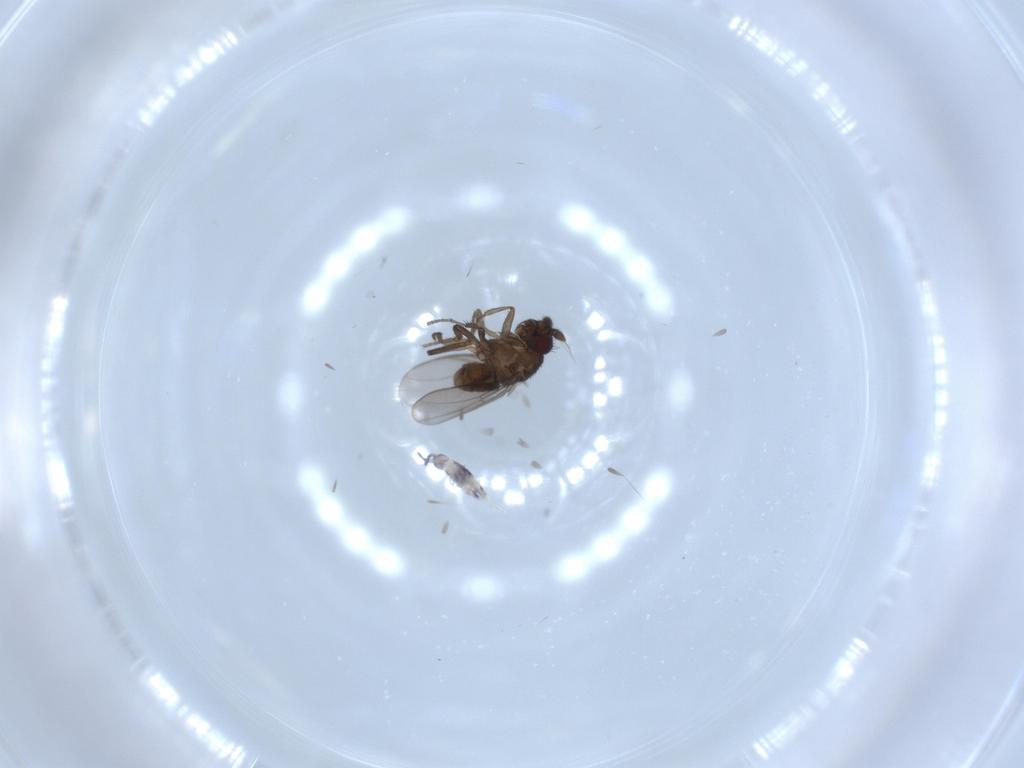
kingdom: Animalia
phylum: Arthropoda
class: Insecta
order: Diptera
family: Sphaeroceridae
